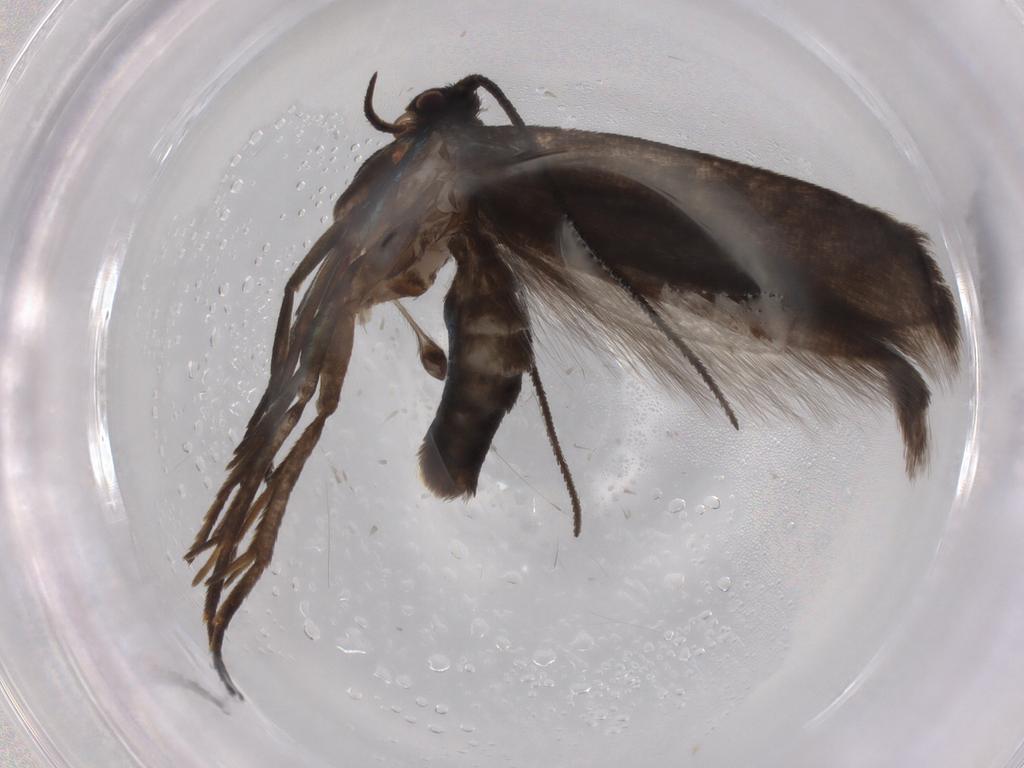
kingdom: Animalia
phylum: Arthropoda
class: Insecta
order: Lepidoptera
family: Argyresthiidae
